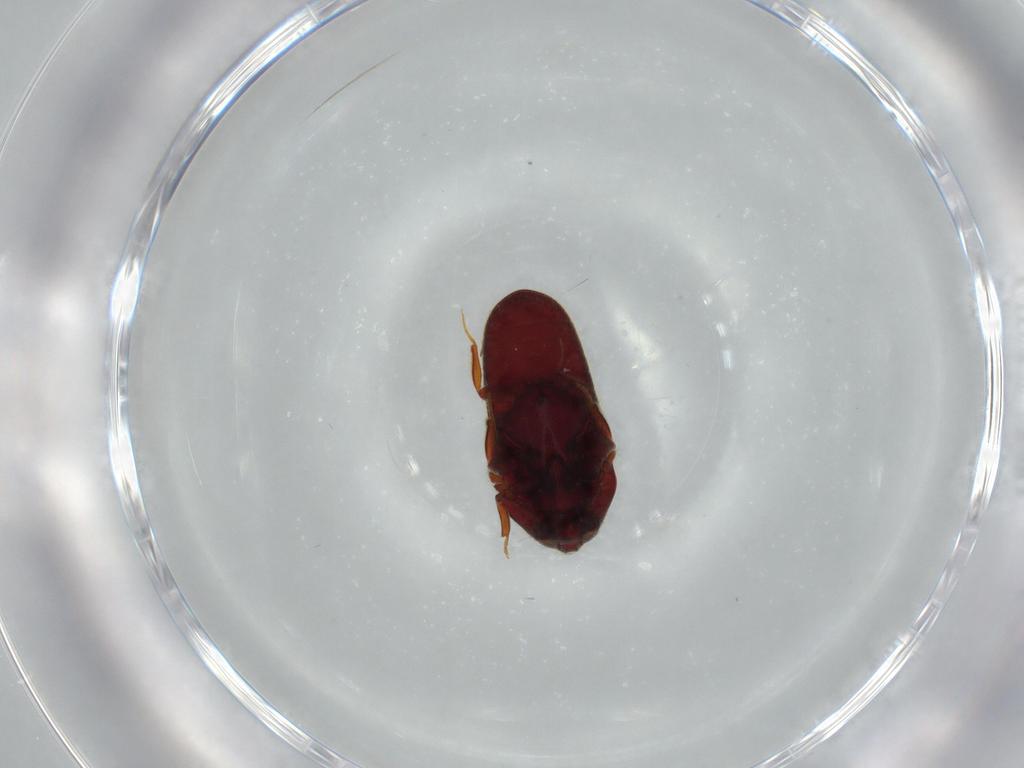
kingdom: Animalia
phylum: Arthropoda
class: Insecta
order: Coleoptera
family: Throscidae
